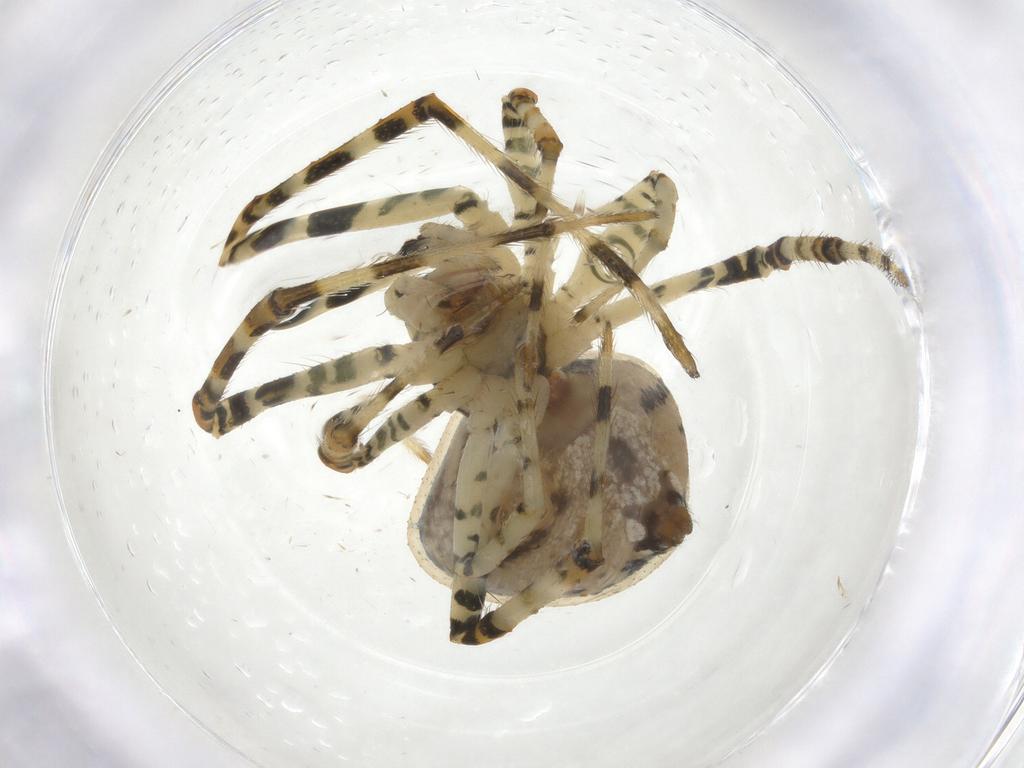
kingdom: Animalia
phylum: Arthropoda
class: Arachnida
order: Araneae
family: Theridiidae
